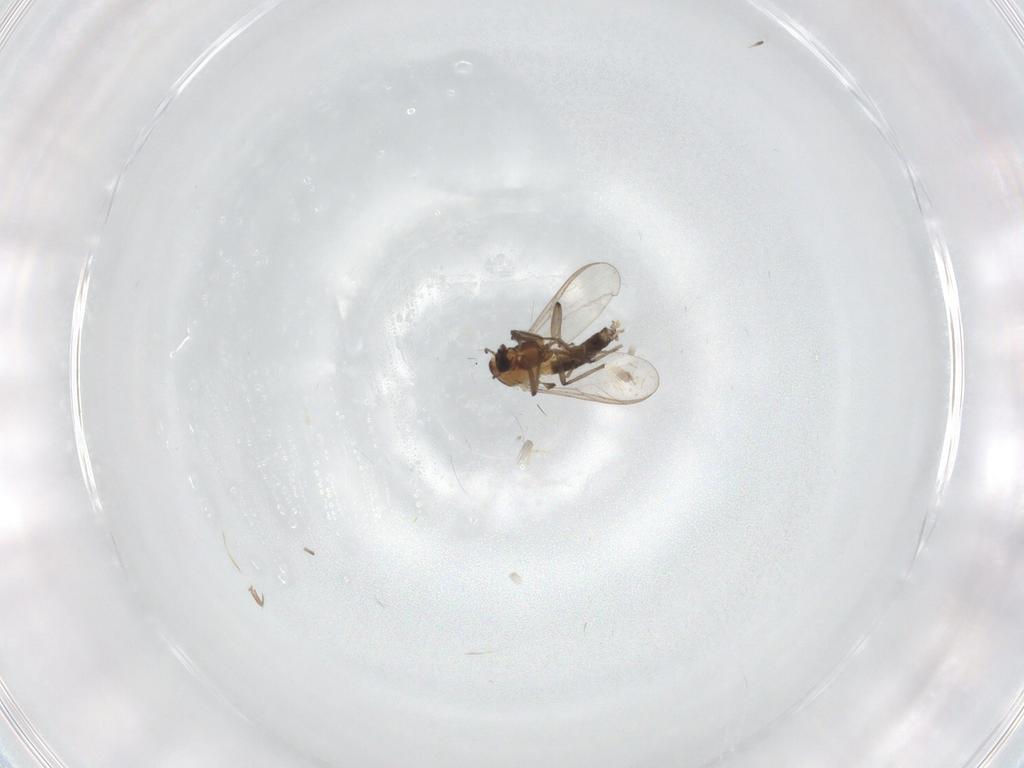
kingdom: Animalia
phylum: Arthropoda
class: Insecta
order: Diptera
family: Chironomidae
